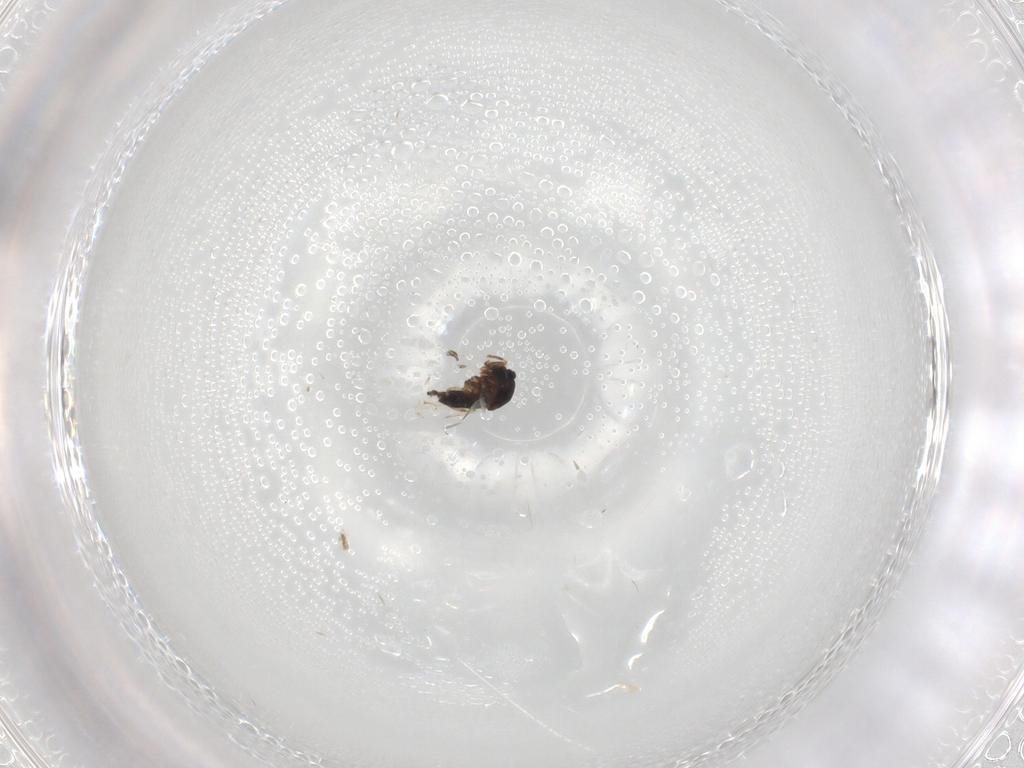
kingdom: Animalia
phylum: Arthropoda
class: Insecta
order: Diptera
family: Scatopsidae
